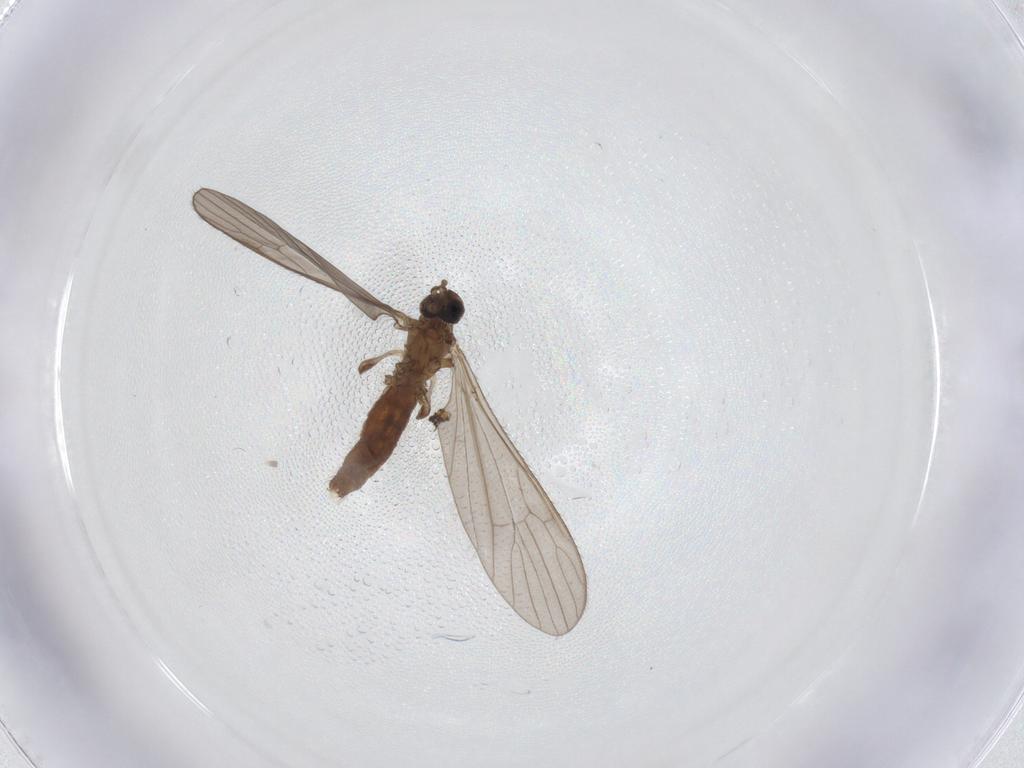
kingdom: Animalia
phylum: Arthropoda
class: Insecta
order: Diptera
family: Limoniidae
